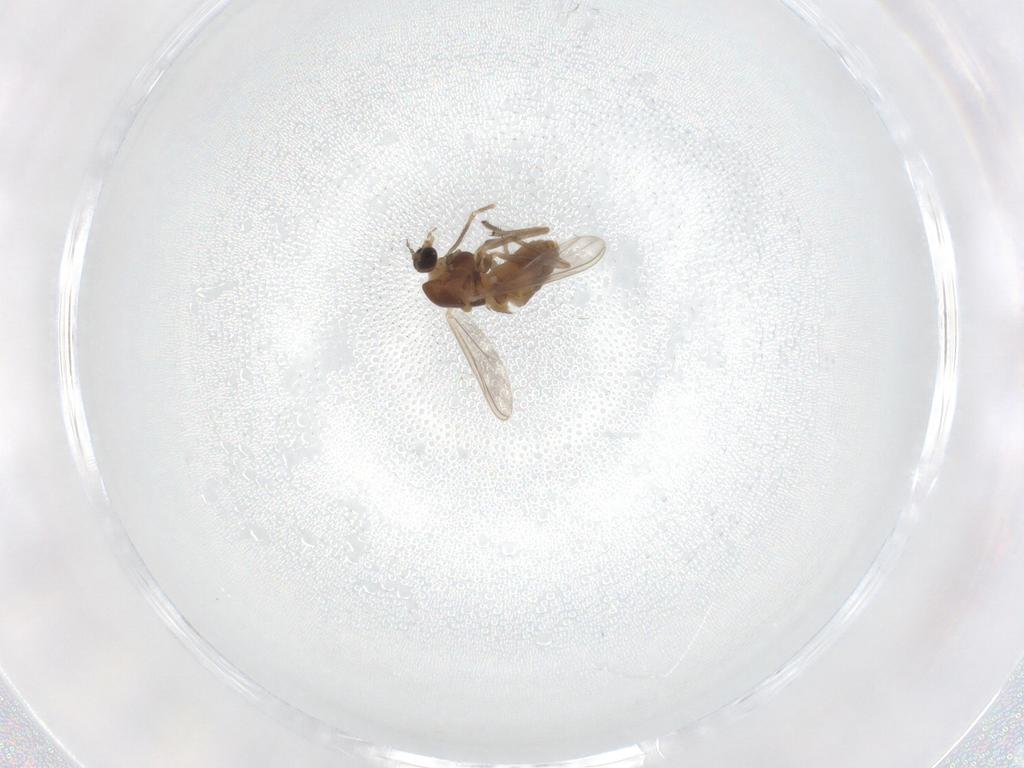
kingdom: Animalia
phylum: Arthropoda
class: Insecta
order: Diptera
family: Chironomidae
